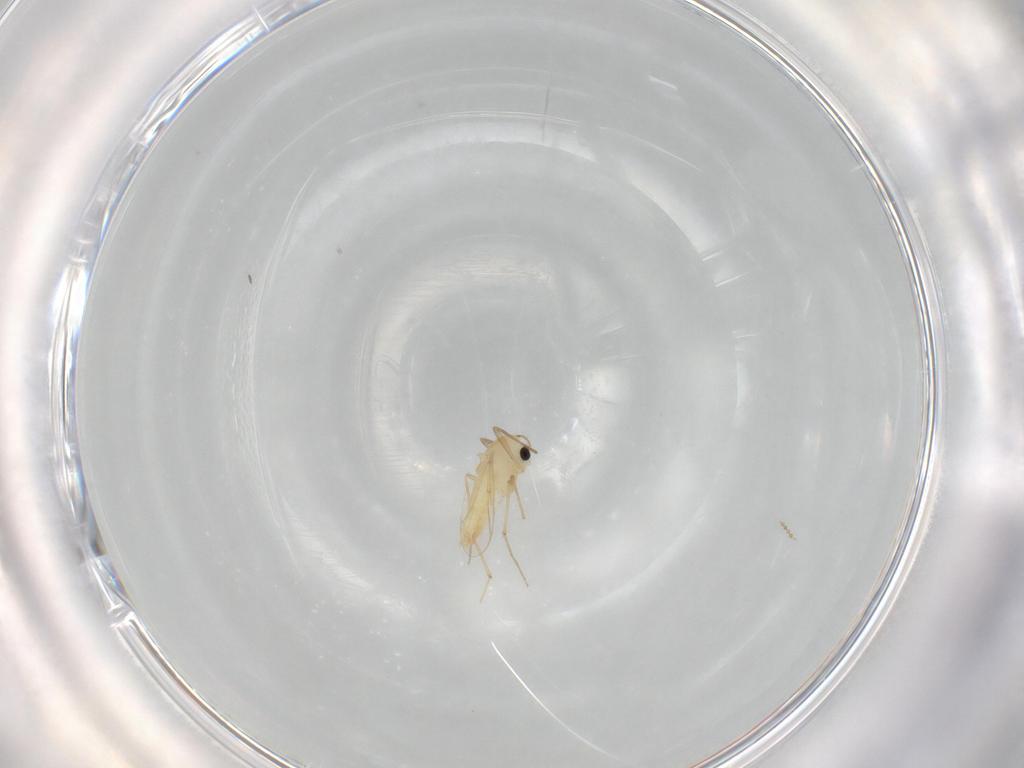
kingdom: Animalia
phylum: Arthropoda
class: Insecta
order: Diptera
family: Chironomidae
